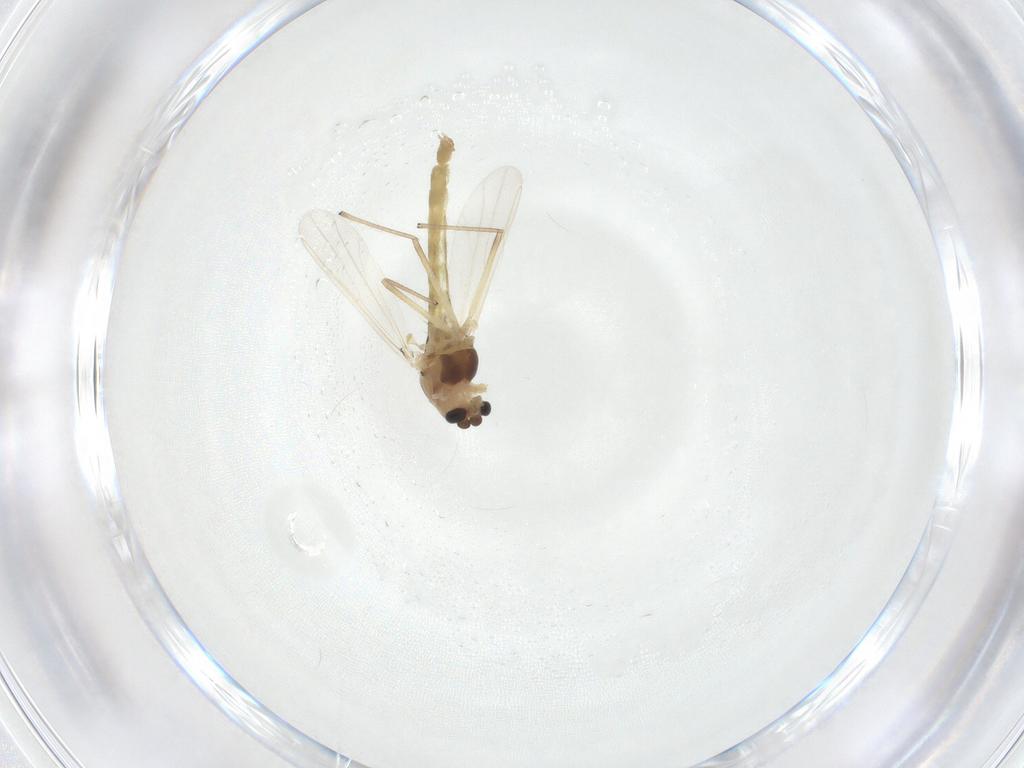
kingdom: Animalia
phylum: Arthropoda
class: Insecta
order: Diptera
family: Chironomidae
